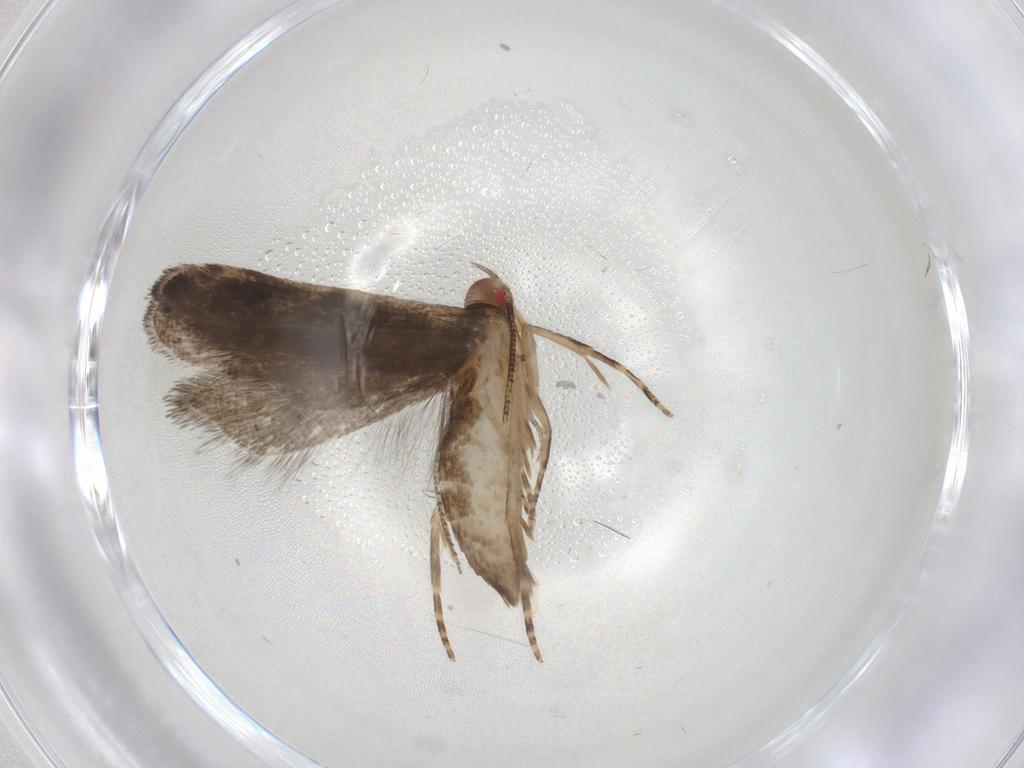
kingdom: Animalia
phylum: Arthropoda
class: Insecta
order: Lepidoptera
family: Gelechiidae
